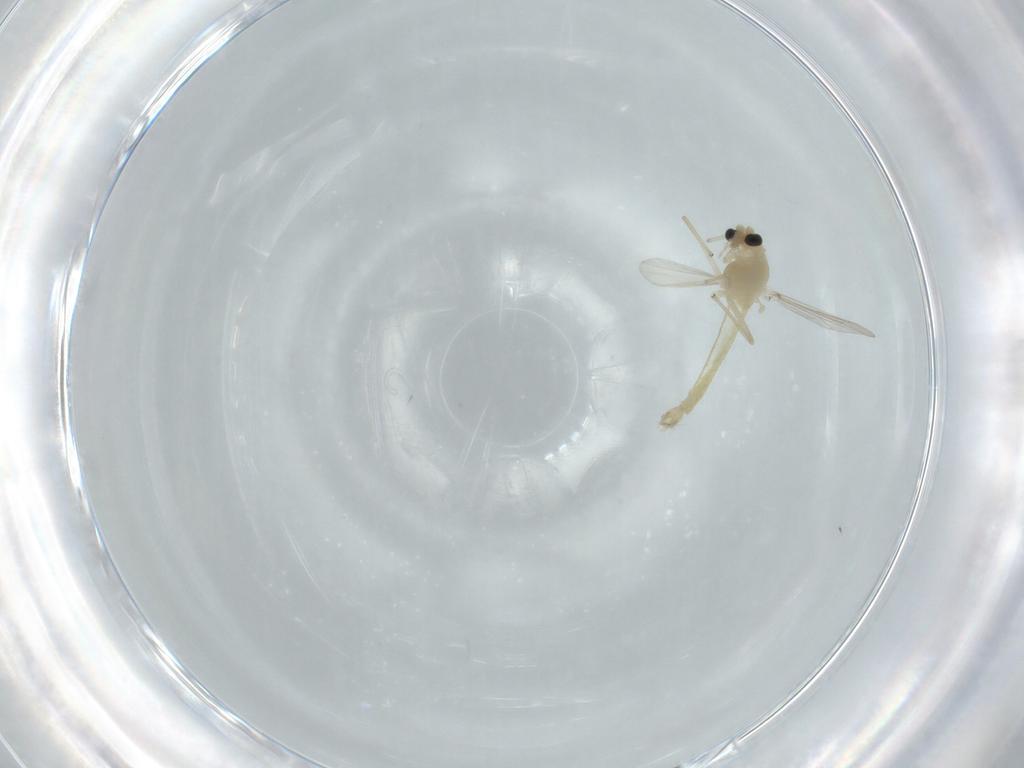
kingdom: Animalia
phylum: Arthropoda
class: Insecta
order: Diptera
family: Chironomidae
